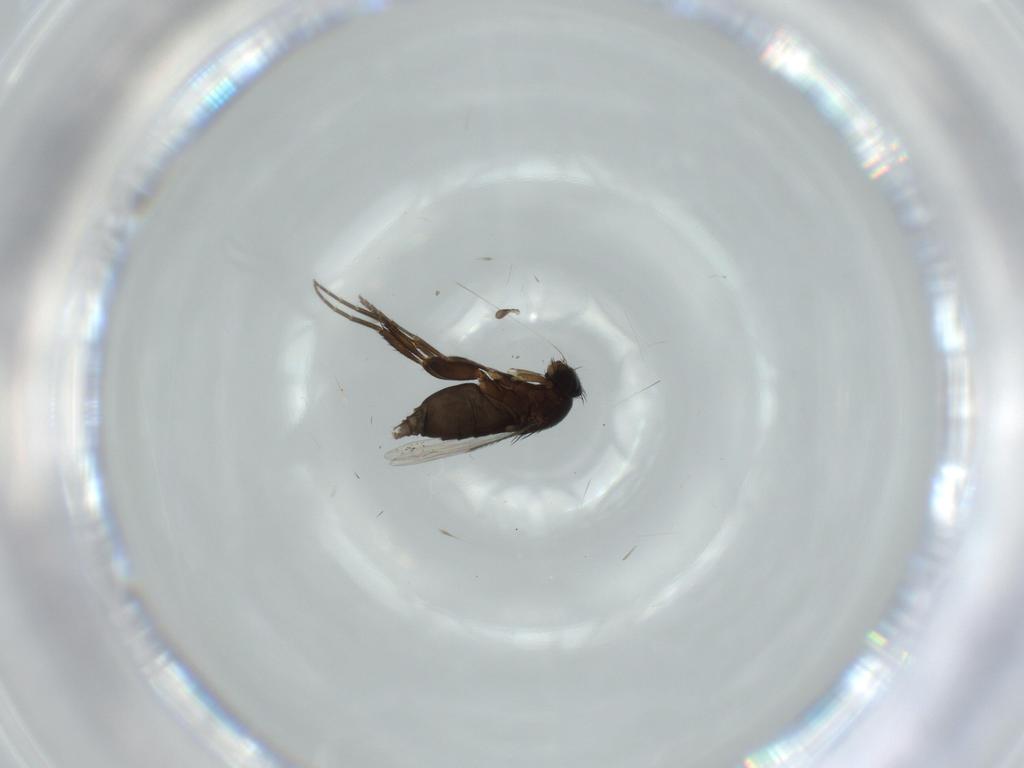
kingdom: Animalia
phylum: Arthropoda
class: Insecta
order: Diptera
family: Phoridae
